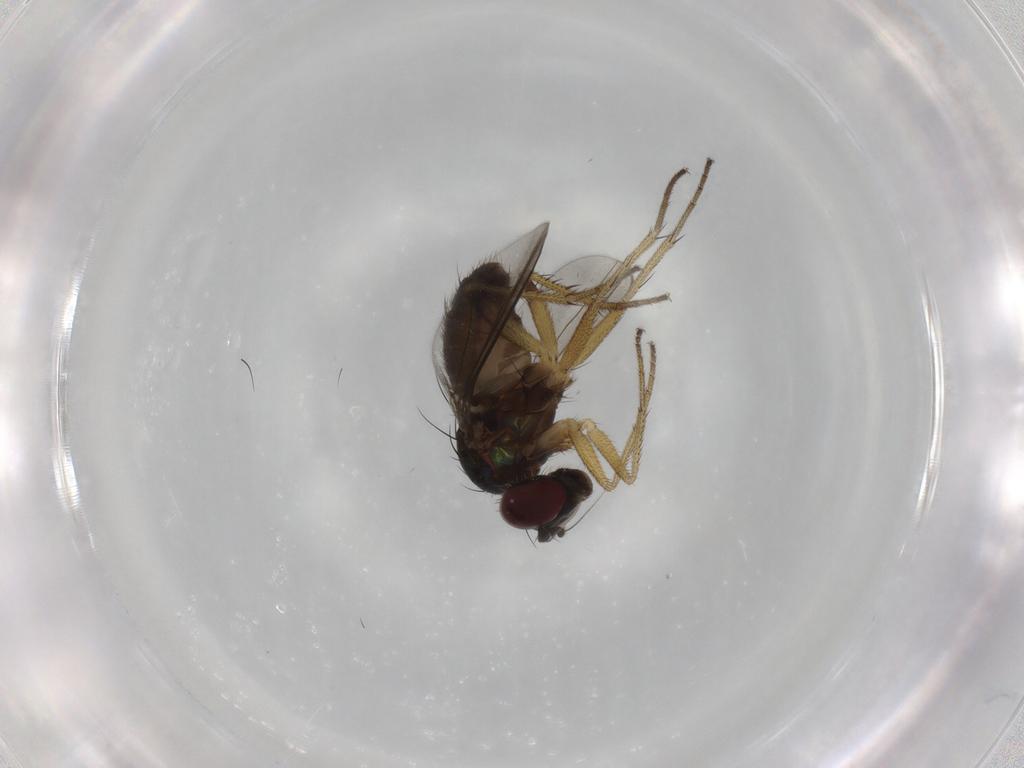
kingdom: Animalia
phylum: Arthropoda
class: Insecta
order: Diptera
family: Dolichopodidae
